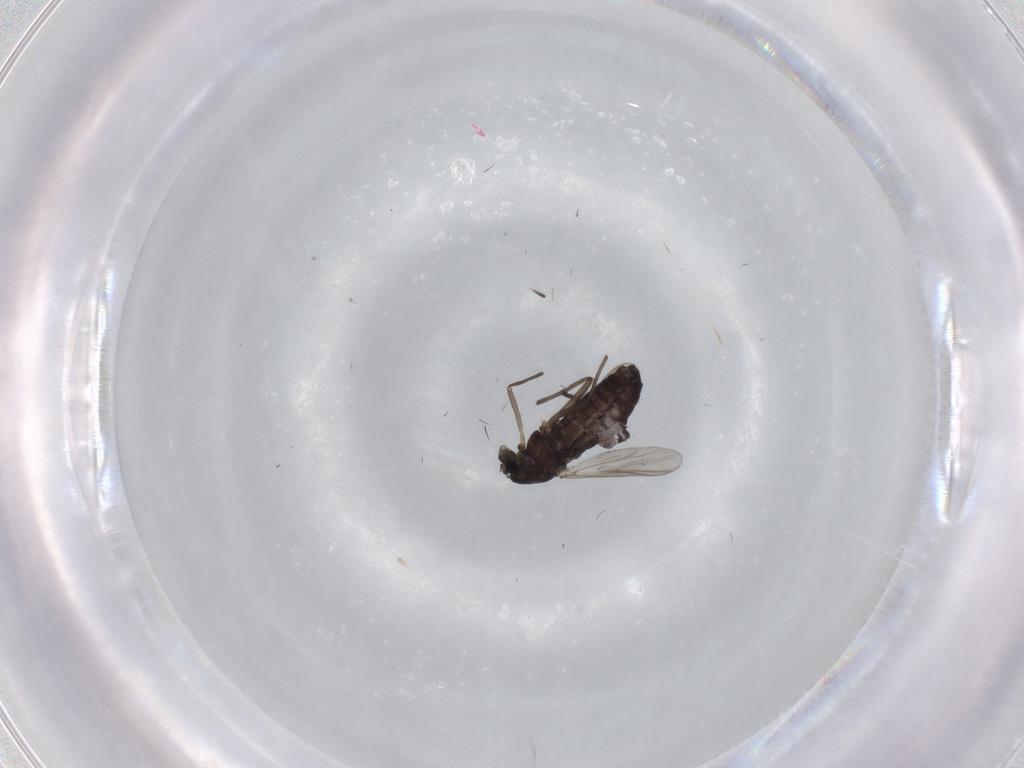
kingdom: Animalia
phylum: Arthropoda
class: Insecta
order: Diptera
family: Chironomidae
